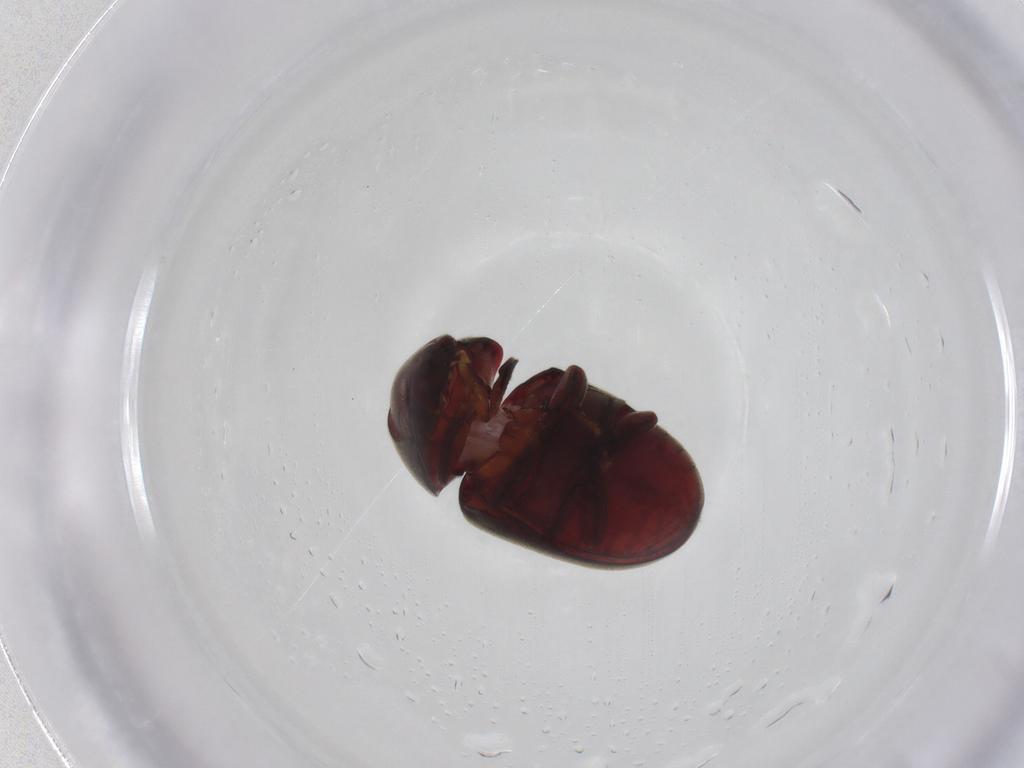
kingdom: Animalia
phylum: Arthropoda
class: Insecta
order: Coleoptera
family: Ptinidae
